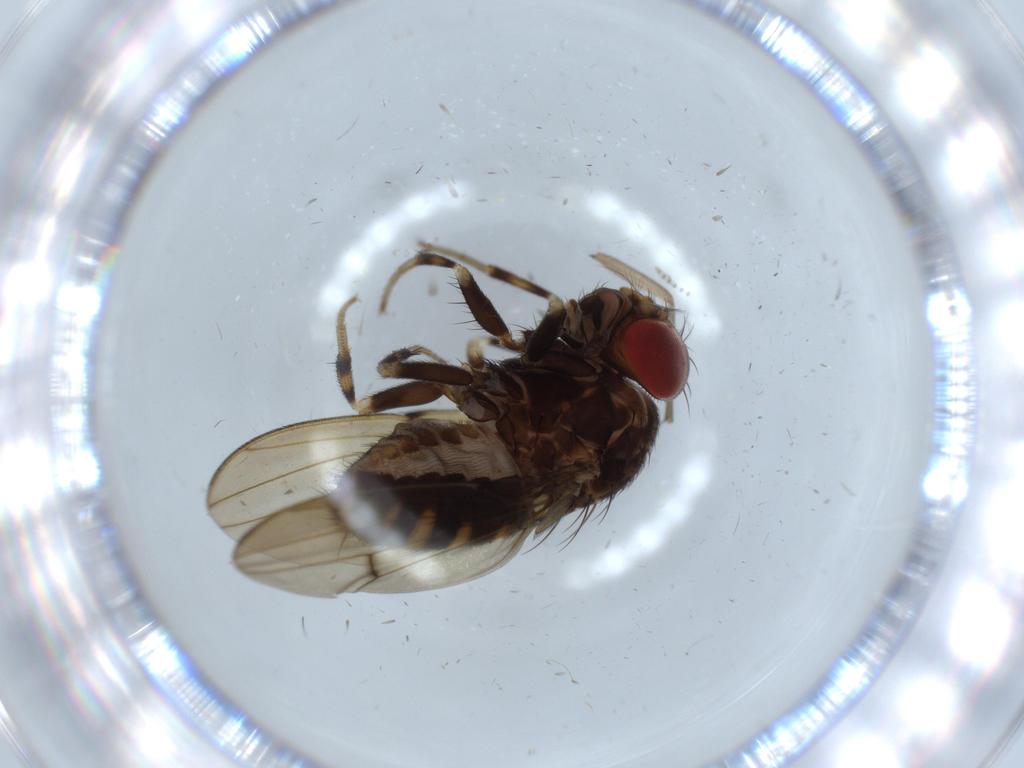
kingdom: Animalia
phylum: Arthropoda
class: Insecta
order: Diptera
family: Drosophilidae
